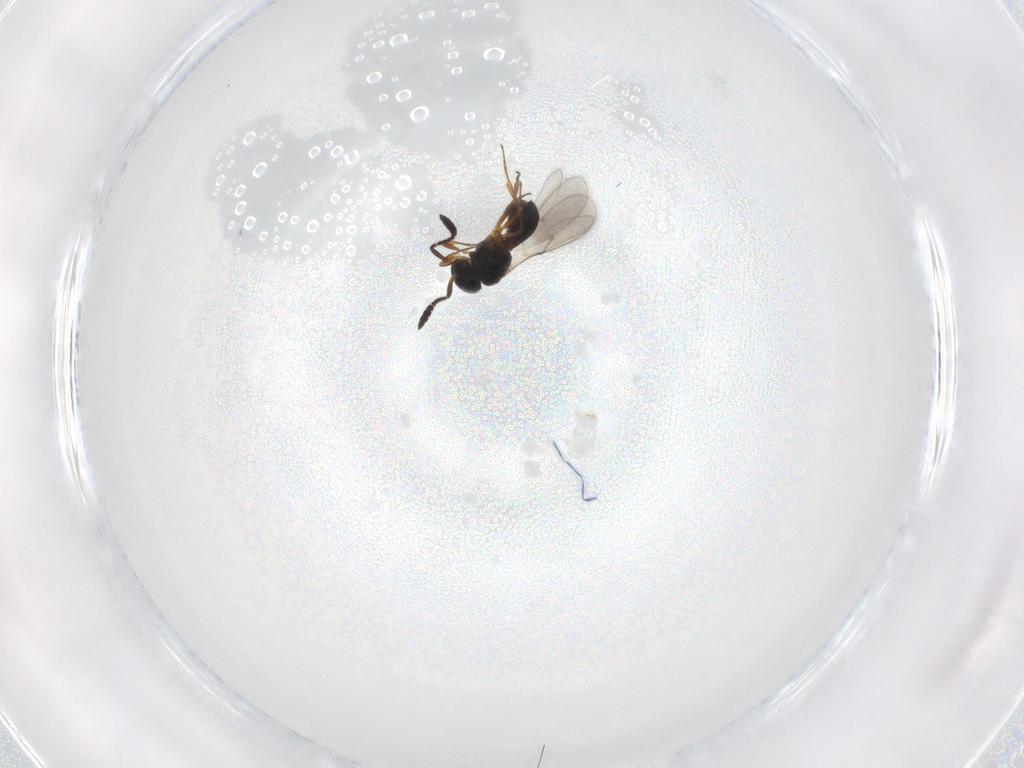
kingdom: Animalia
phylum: Arthropoda
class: Insecta
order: Hymenoptera
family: Scelionidae
